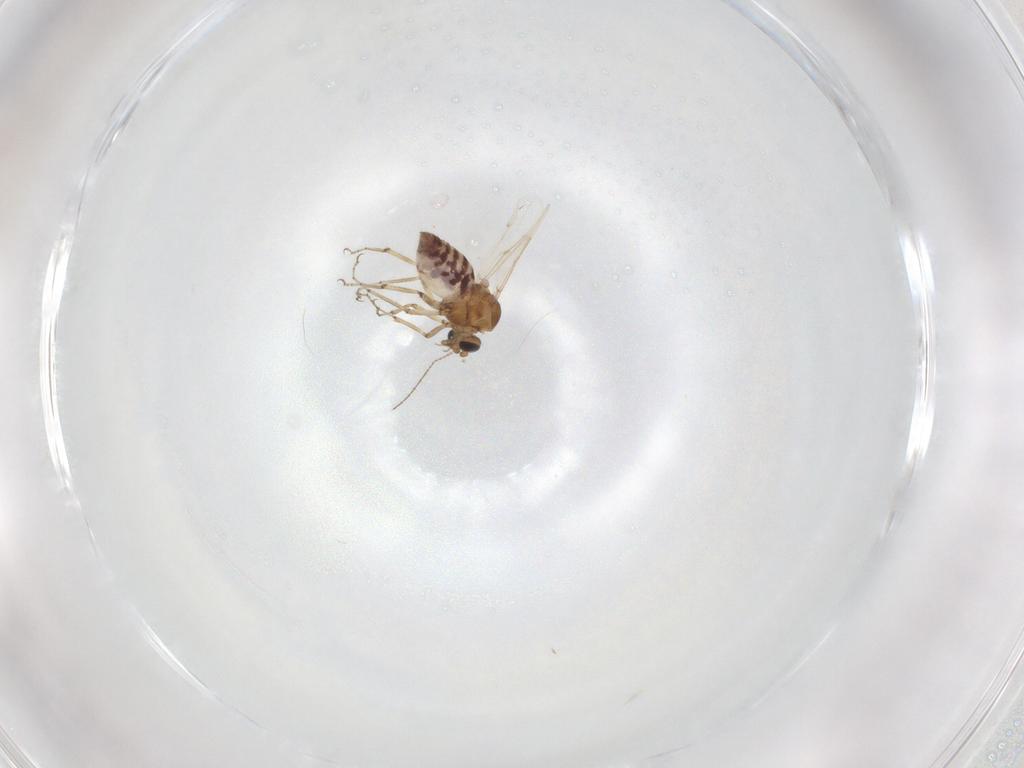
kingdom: Animalia
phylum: Arthropoda
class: Insecta
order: Diptera
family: Ceratopogonidae
